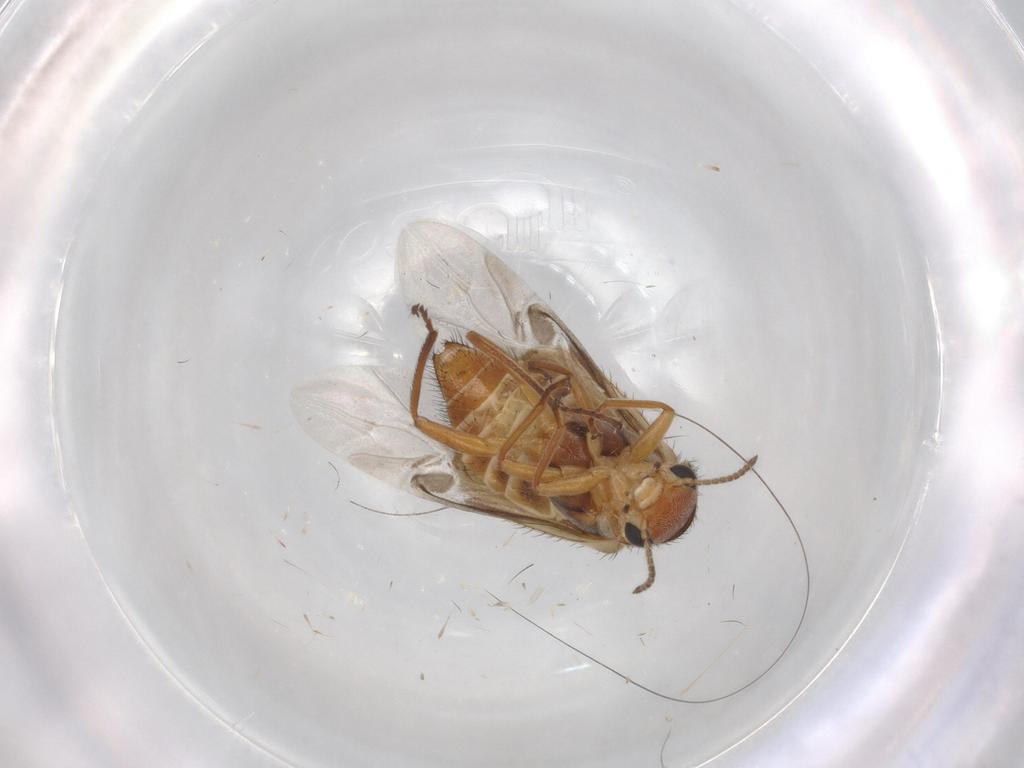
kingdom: Animalia
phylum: Arthropoda
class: Insecta
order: Coleoptera
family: Melyridae
